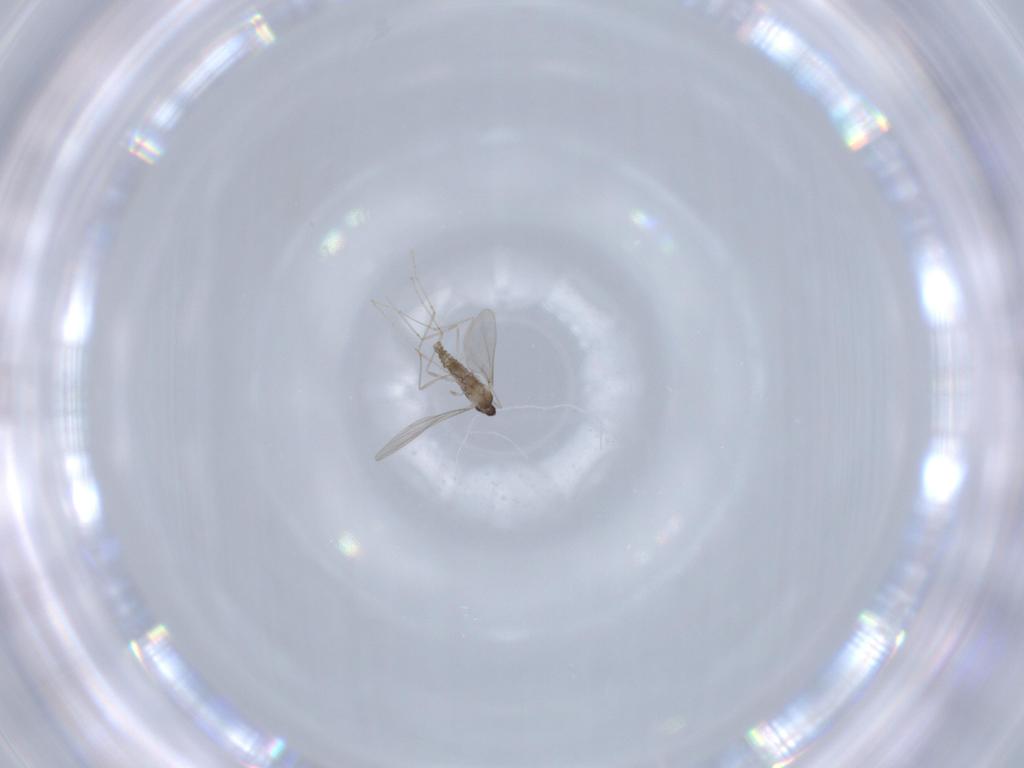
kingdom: Animalia
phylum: Arthropoda
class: Insecta
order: Diptera
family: Cecidomyiidae
